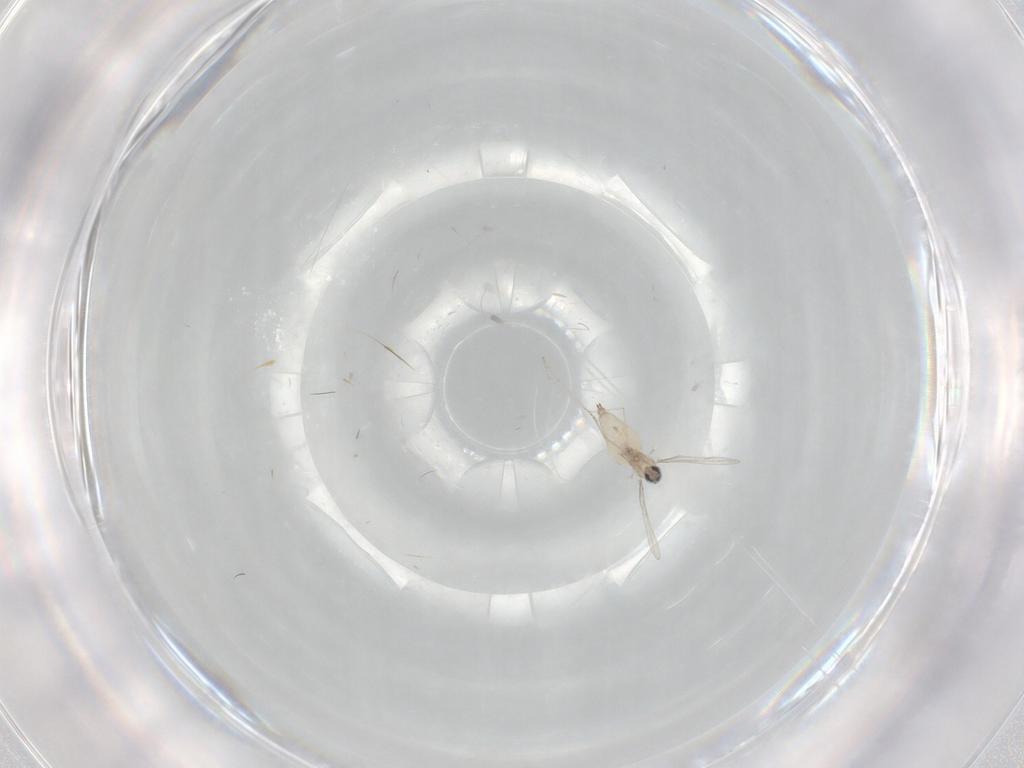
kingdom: Animalia
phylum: Arthropoda
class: Insecta
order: Diptera
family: Cecidomyiidae
